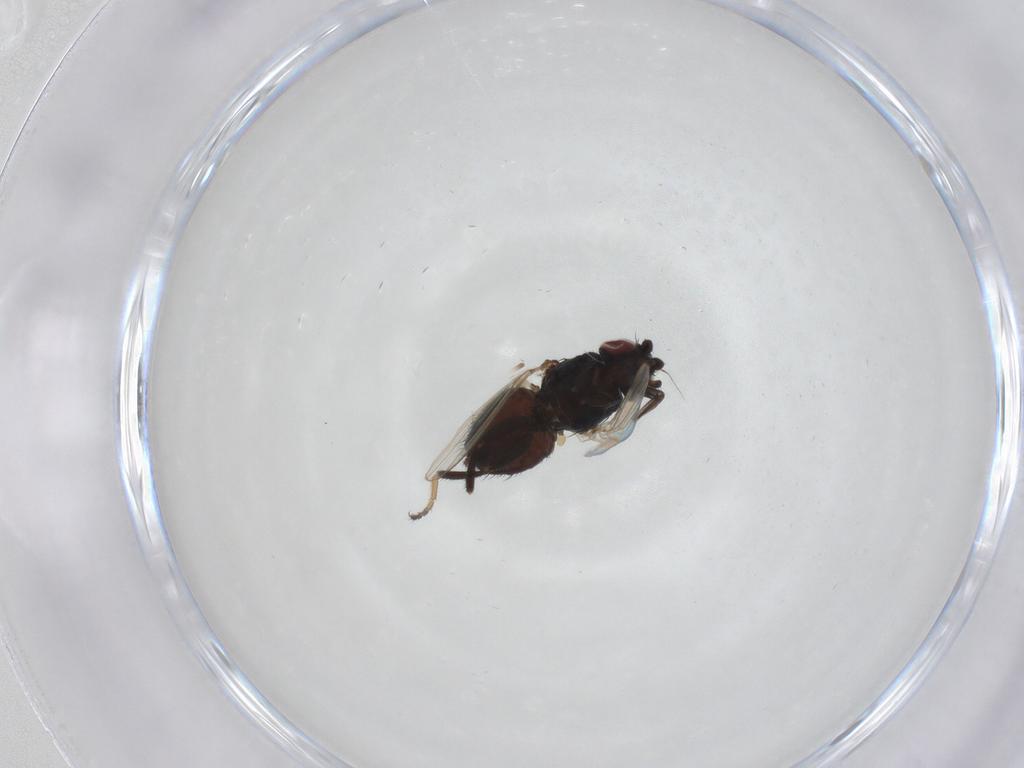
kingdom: Animalia
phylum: Arthropoda
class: Insecta
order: Diptera
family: Milichiidae
